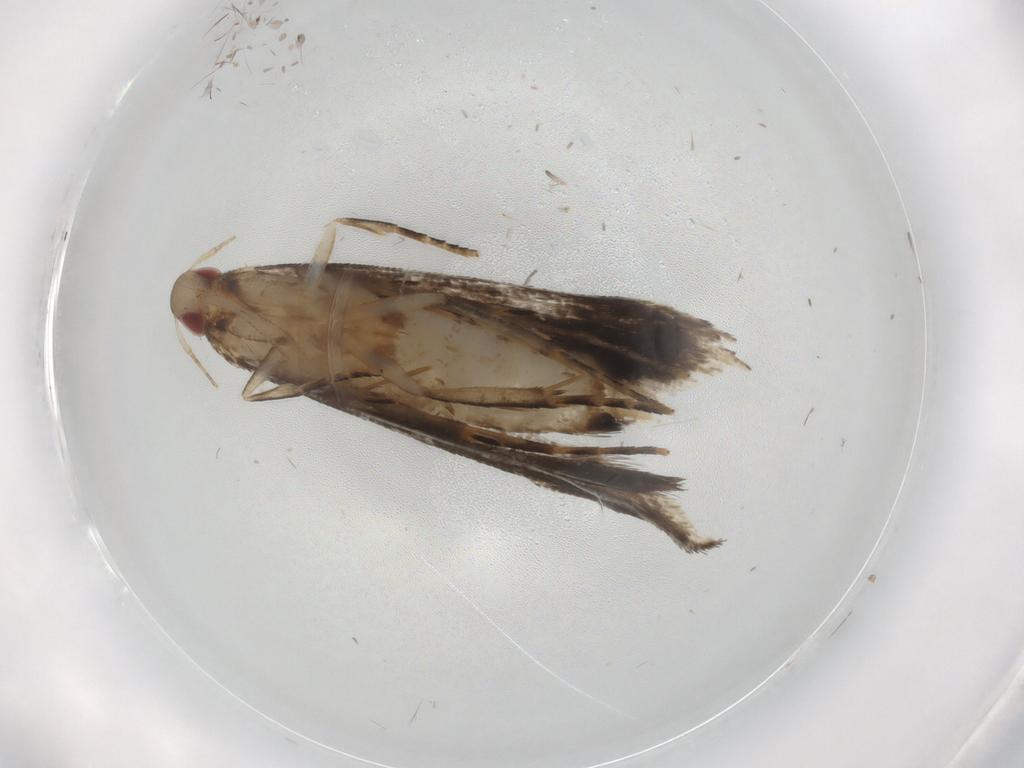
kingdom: Animalia
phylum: Arthropoda
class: Insecta
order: Lepidoptera
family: Gelechiidae
